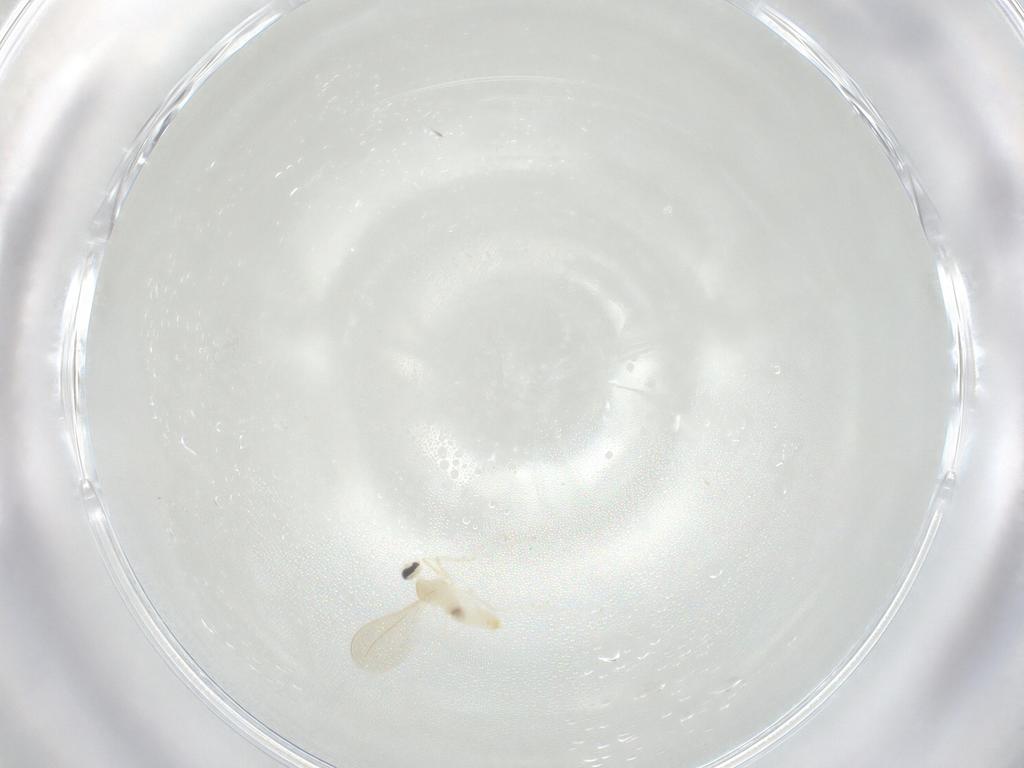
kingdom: Animalia
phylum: Arthropoda
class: Insecta
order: Diptera
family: Cecidomyiidae
